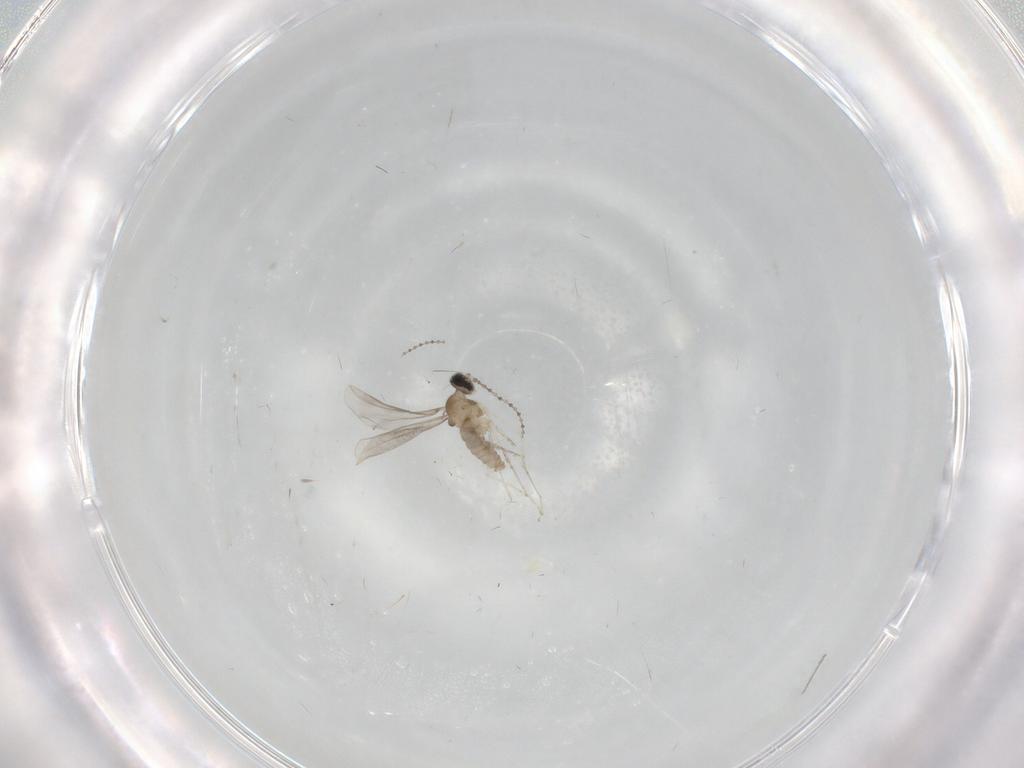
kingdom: Animalia
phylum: Arthropoda
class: Insecta
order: Diptera
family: Cecidomyiidae
